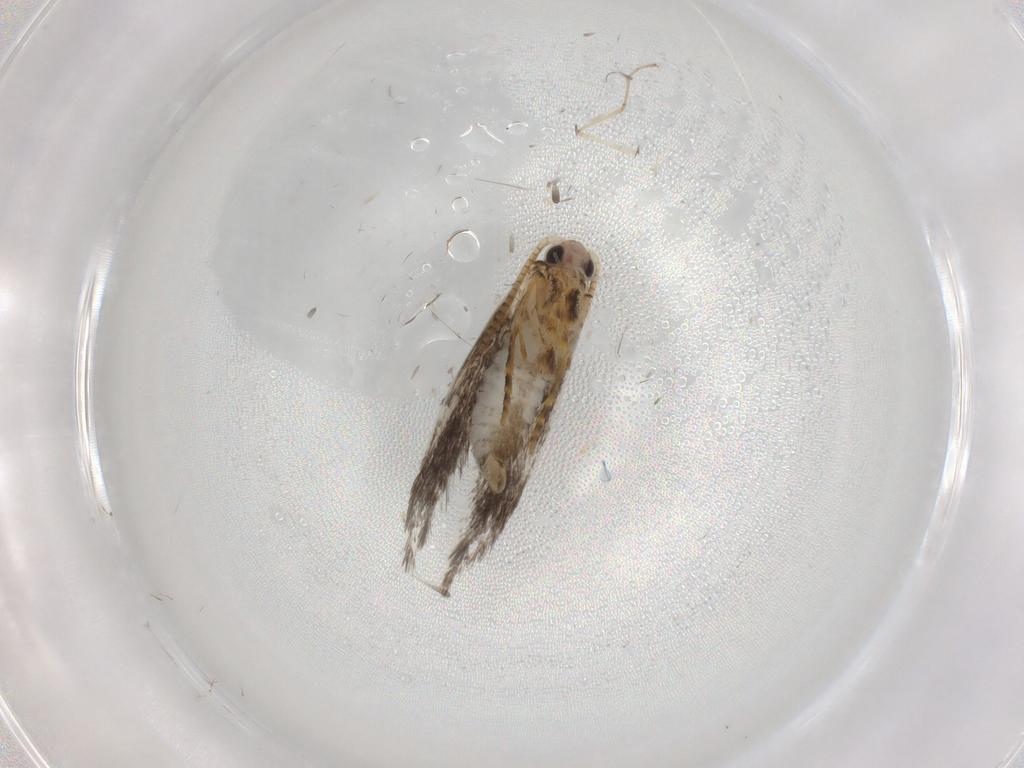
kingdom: Animalia
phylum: Arthropoda
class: Insecta
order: Lepidoptera
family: Tineidae
